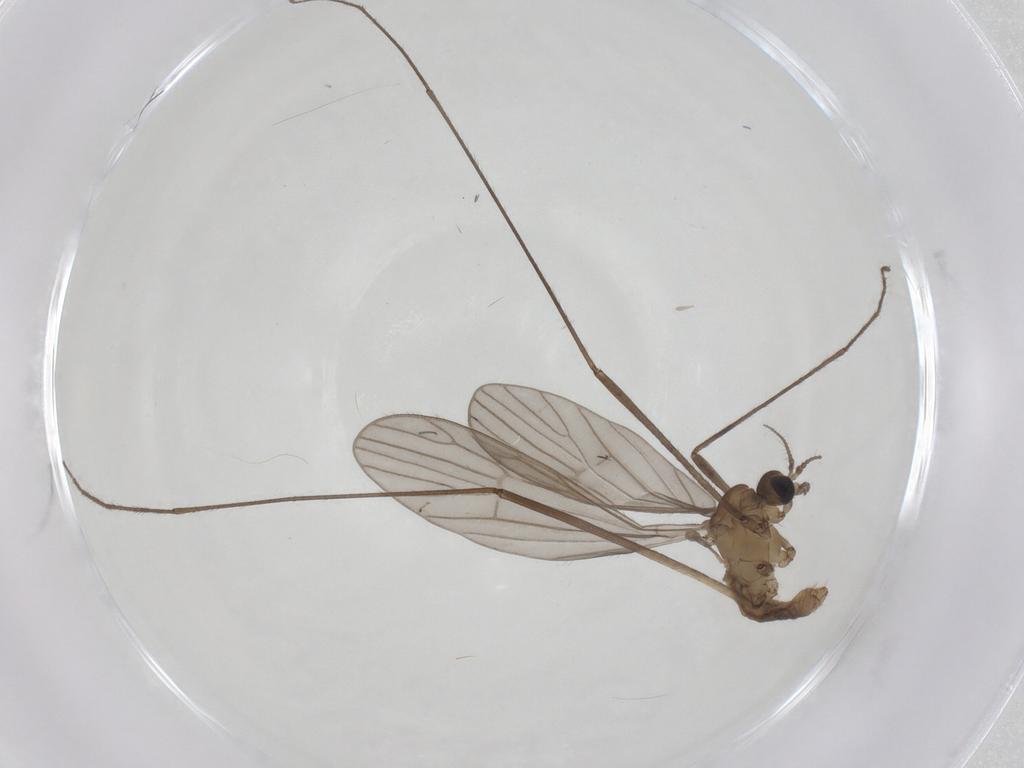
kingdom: Animalia
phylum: Arthropoda
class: Insecta
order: Diptera
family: Limoniidae
